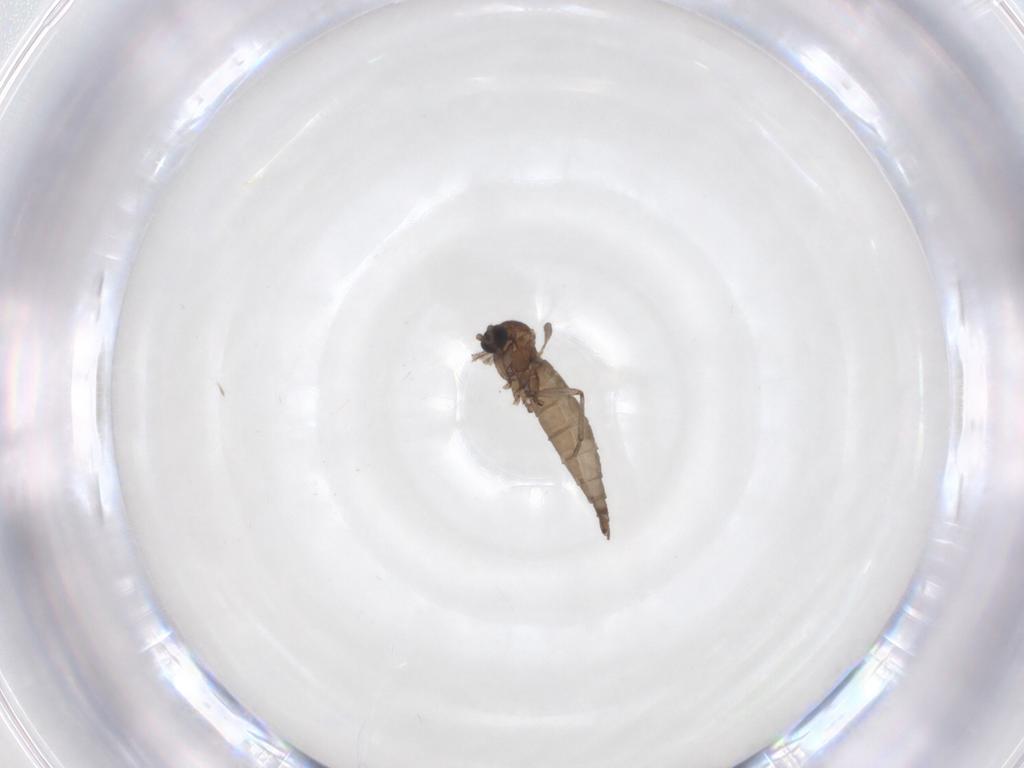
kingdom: Animalia
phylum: Arthropoda
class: Insecta
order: Diptera
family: Sciaridae
